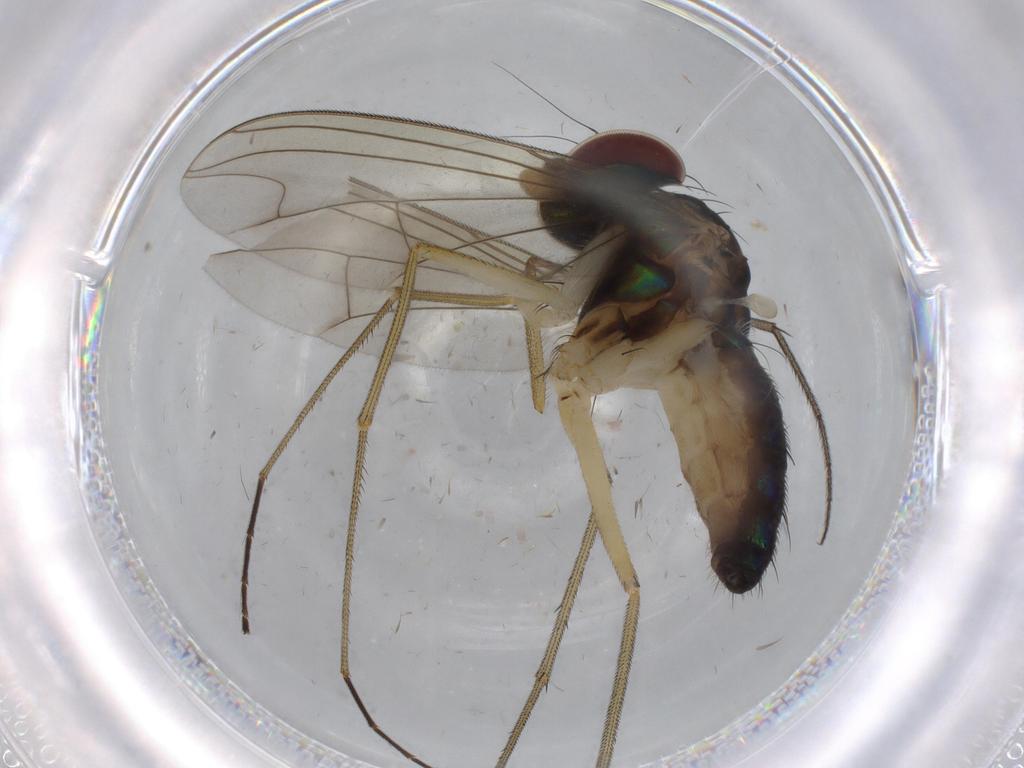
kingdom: Animalia
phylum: Arthropoda
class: Insecta
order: Diptera
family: Dolichopodidae
